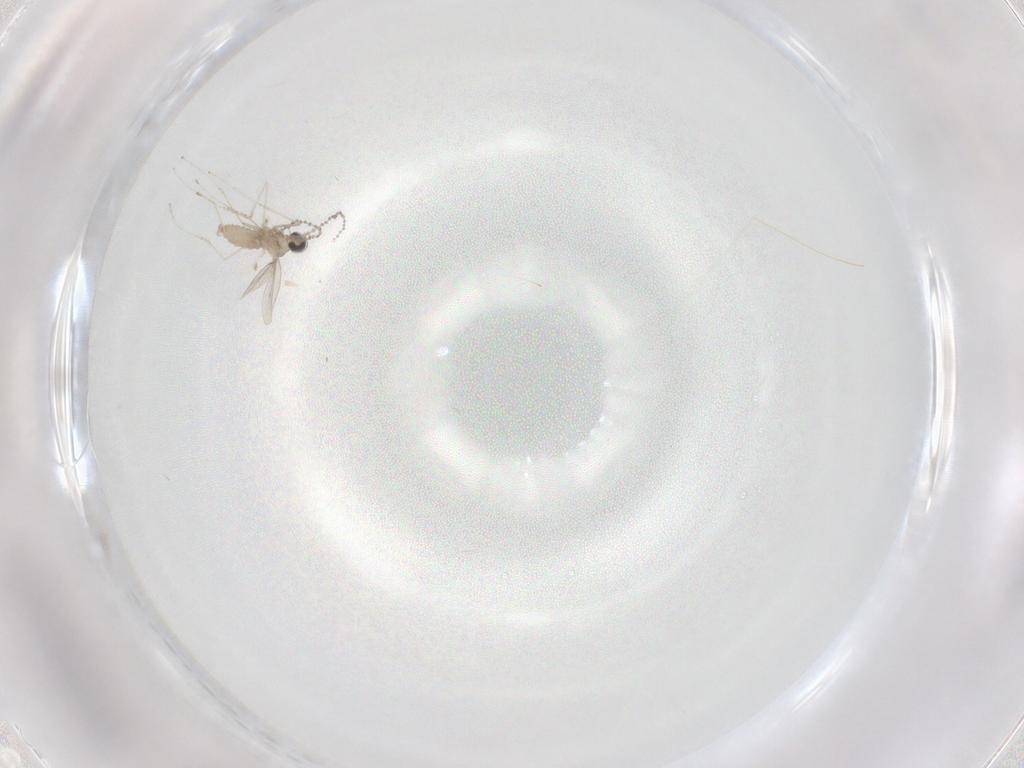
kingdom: Animalia
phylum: Arthropoda
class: Insecta
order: Diptera
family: Cecidomyiidae
